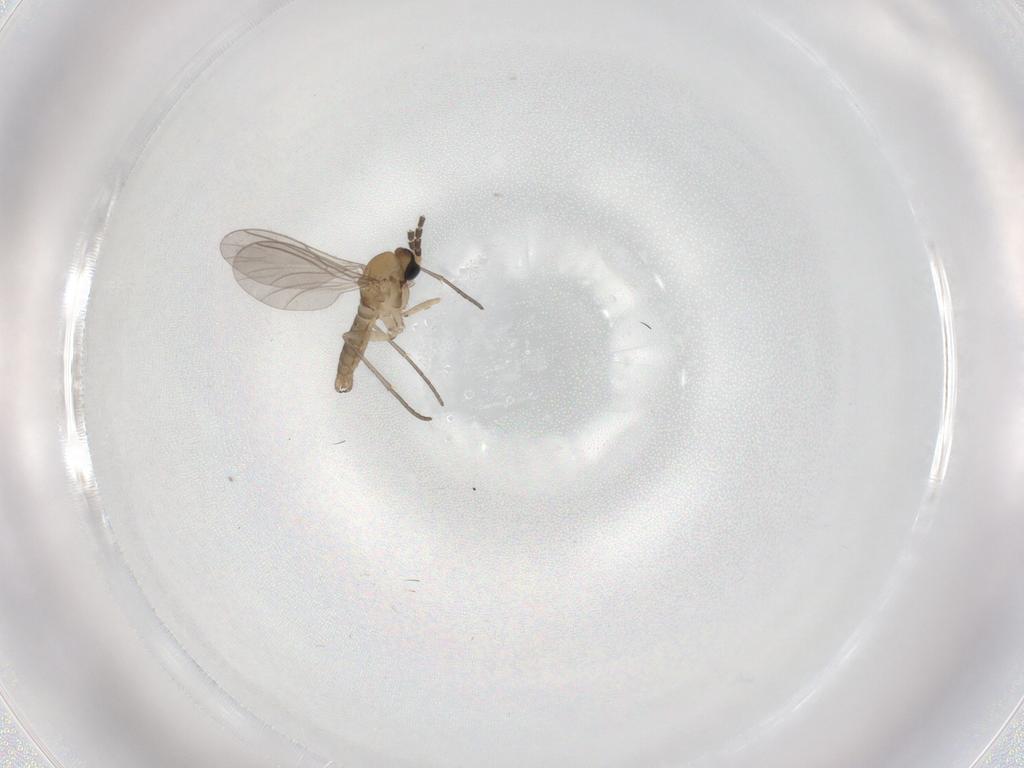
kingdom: Animalia
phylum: Arthropoda
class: Insecta
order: Diptera
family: Sciaridae
